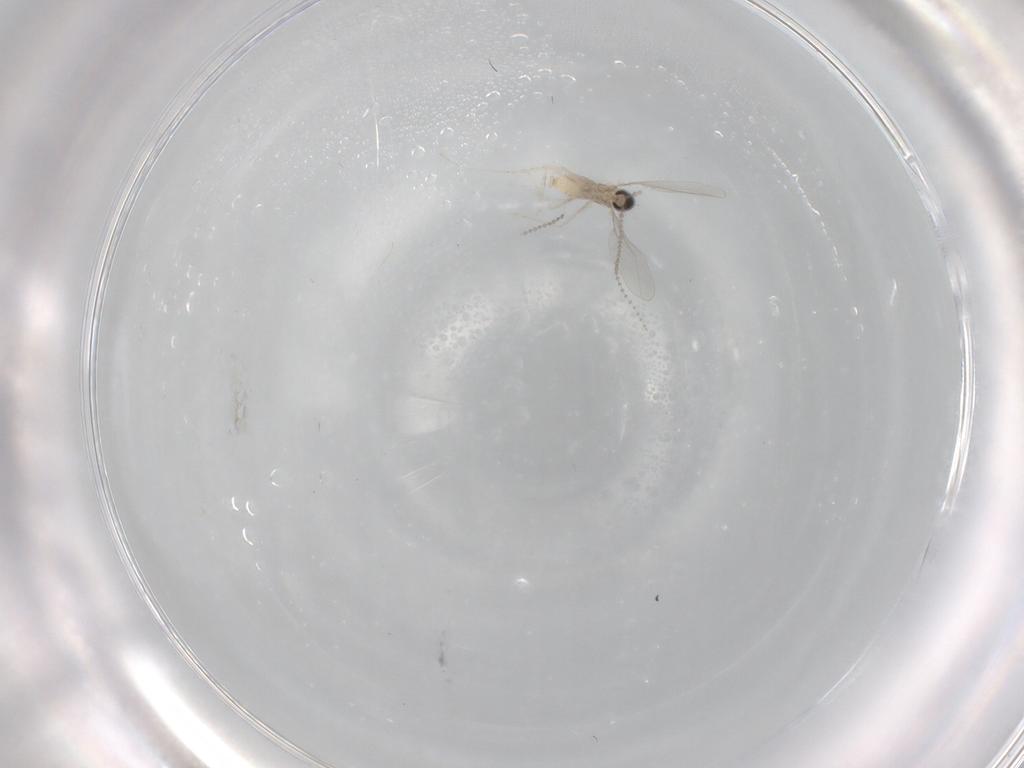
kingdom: Animalia
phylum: Arthropoda
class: Insecta
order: Diptera
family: Cecidomyiidae
